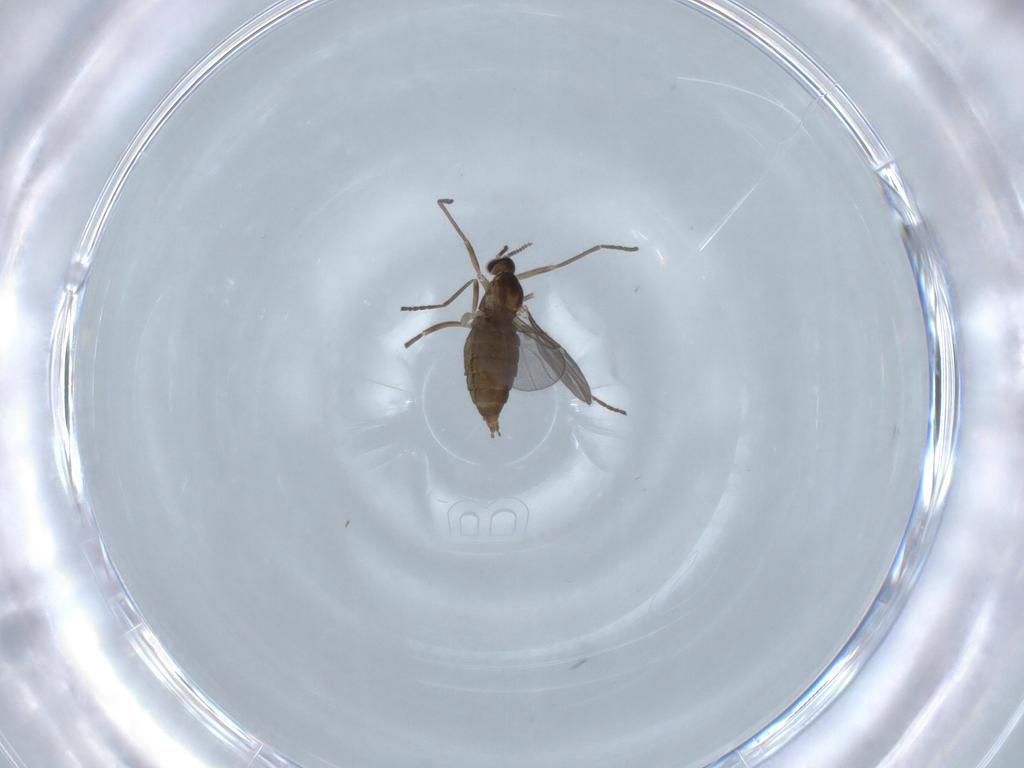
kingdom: Animalia
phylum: Arthropoda
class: Insecta
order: Diptera
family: Cecidomyiidae
